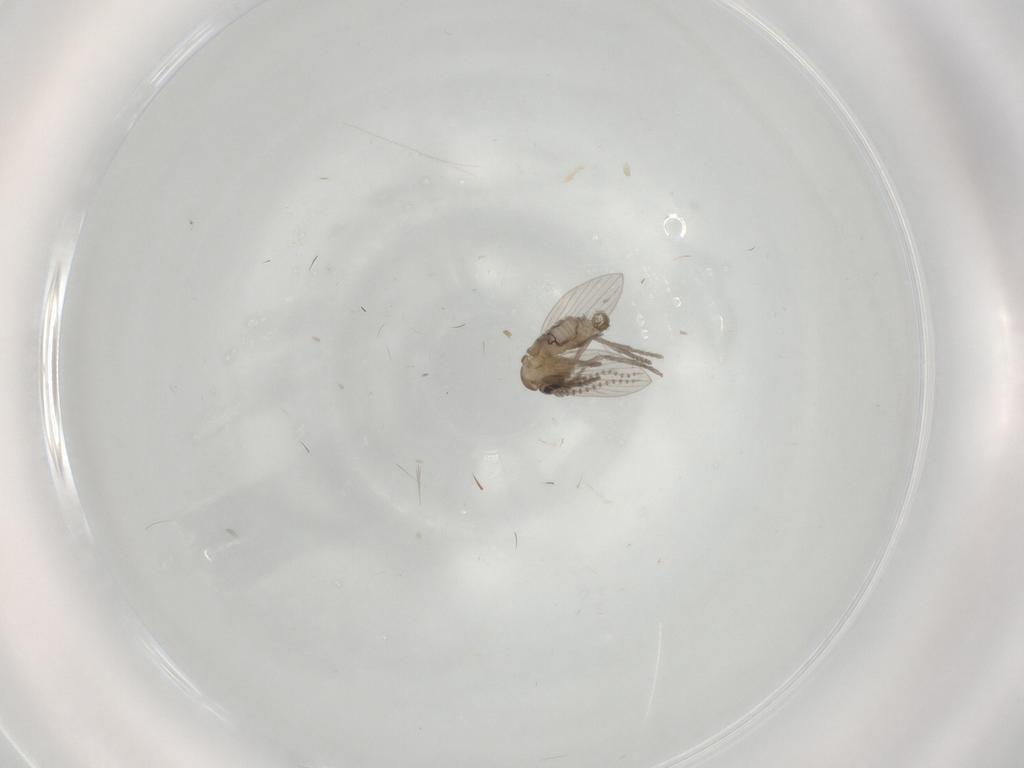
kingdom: Animalia
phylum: Arthropoda
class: Insecta
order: Diptera
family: Psychodidae
